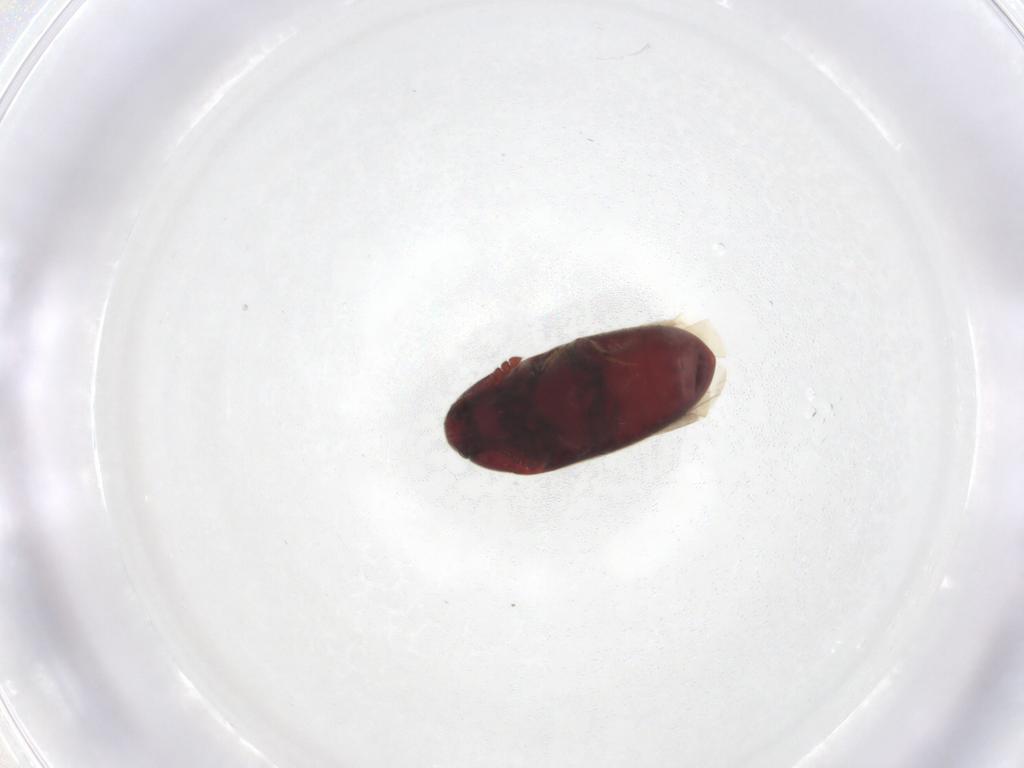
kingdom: Animalia
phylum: Arthropoda
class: Insecta
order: Coleoptera
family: Throscidae
